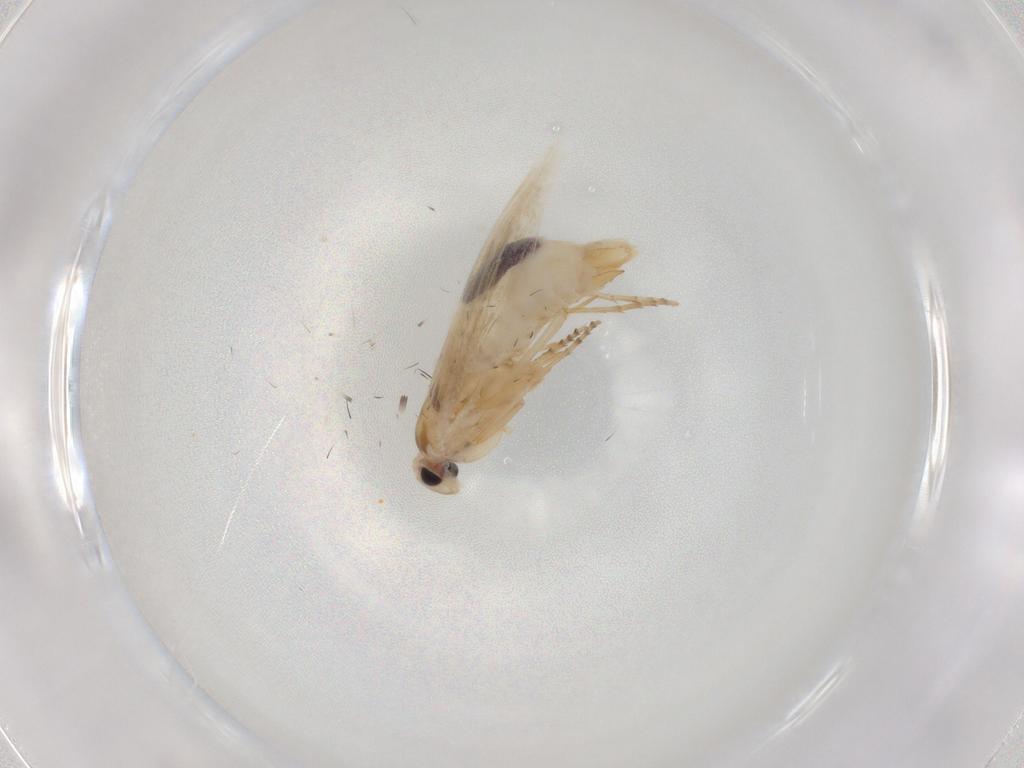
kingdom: Animalia
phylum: Arthropoda
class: Insecta
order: Lepidoptera
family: Bucculatricidae
